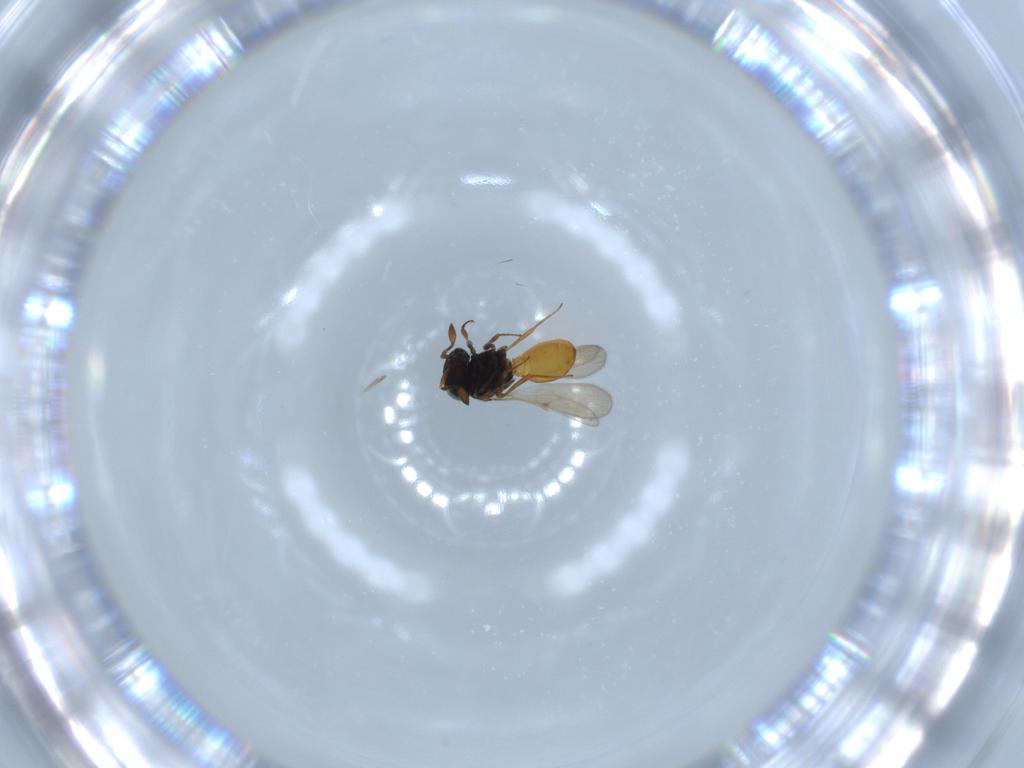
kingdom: Animalia
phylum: Arthropoda
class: Insecta
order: Hymenoptera
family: Scelionidae
